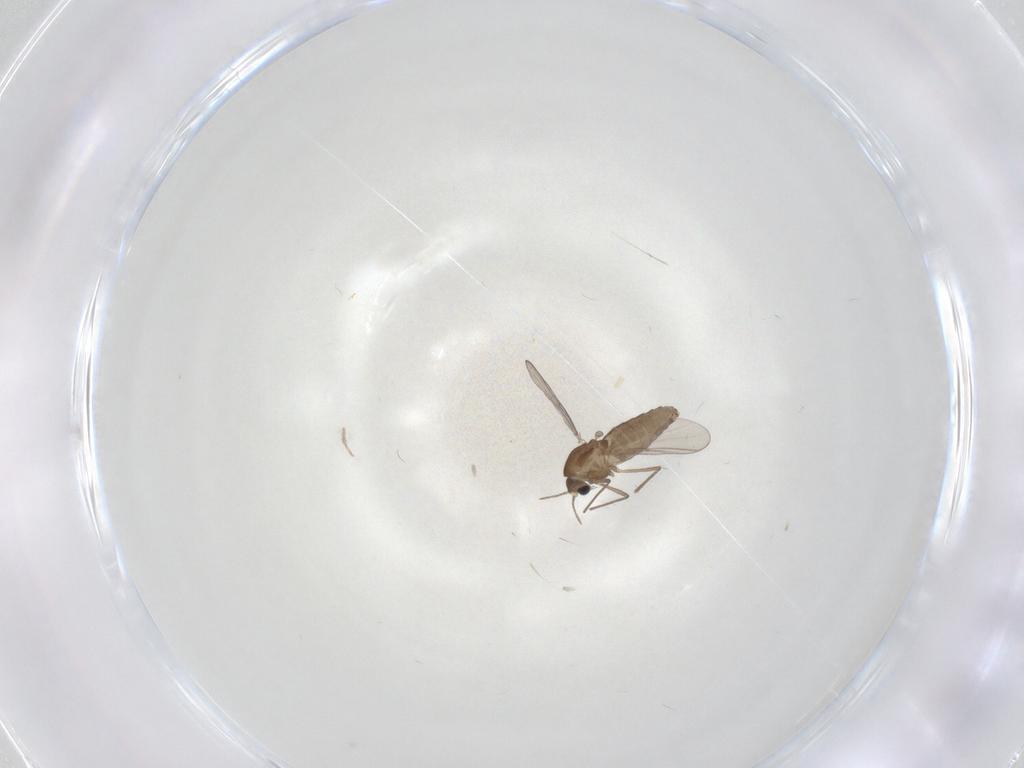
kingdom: Animalia
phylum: Arthropoda
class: Insecta
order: Diptera
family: Chironomidae
